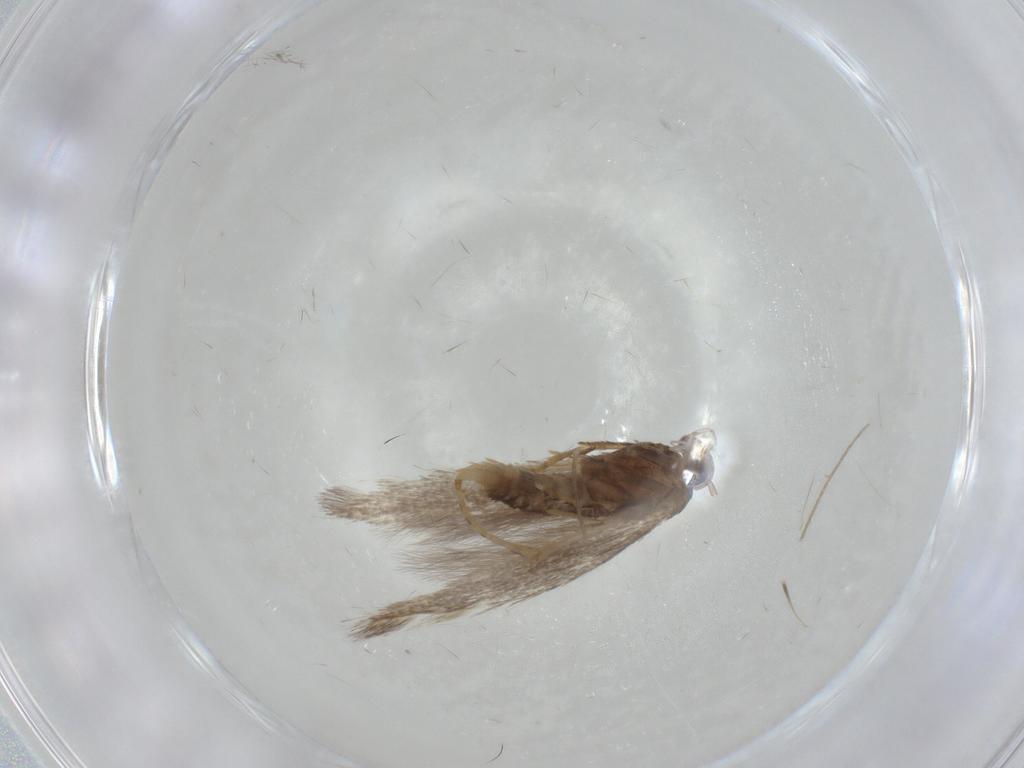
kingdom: Animalia
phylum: Arthropoda
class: Insecta
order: Lepidoptera
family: Elachistidae
